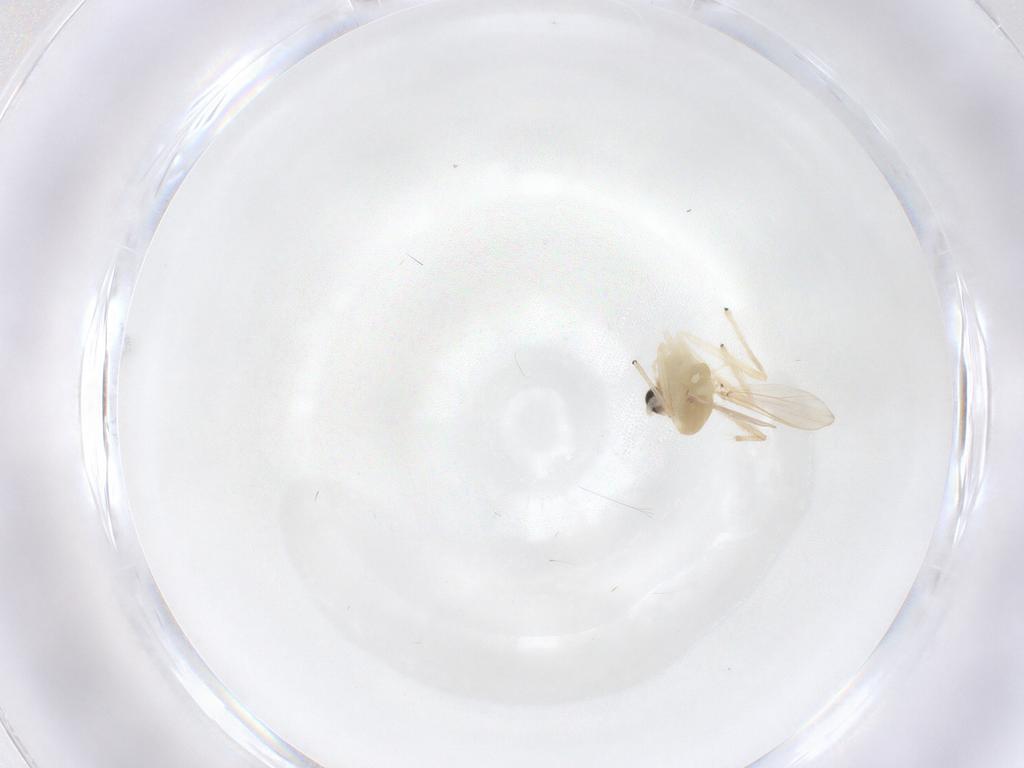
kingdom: Animalia
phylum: Arthropoda
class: Insecta
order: Diptera
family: Chironomidae
